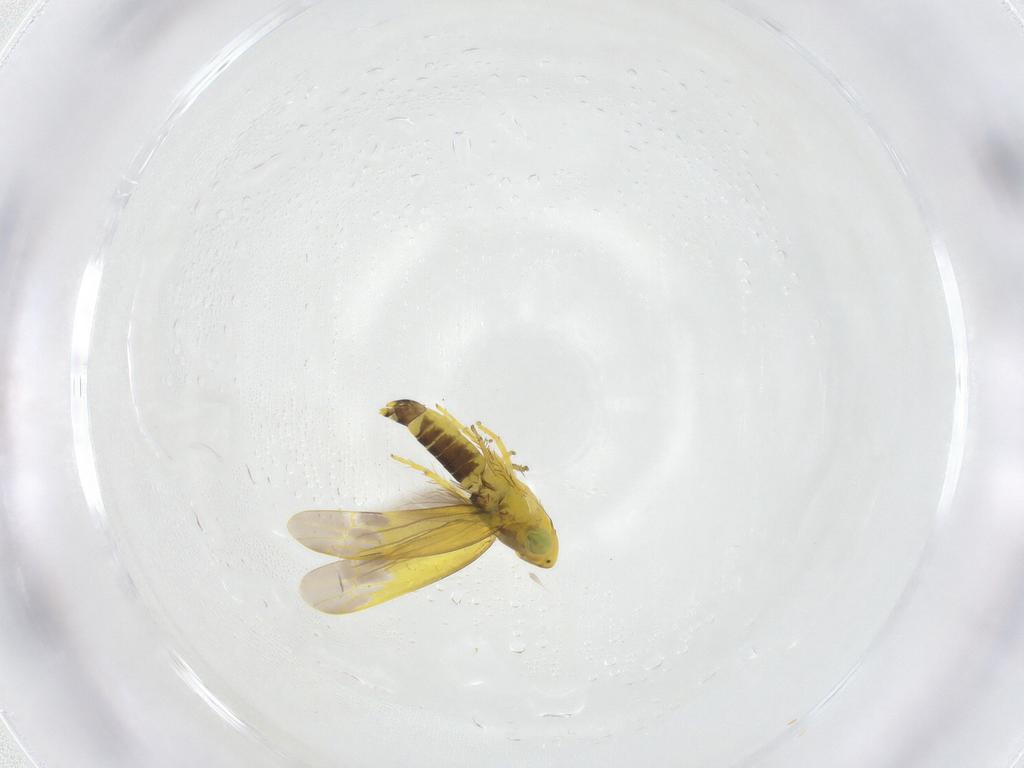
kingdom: Animalia
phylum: Arthropoda
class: Insecta
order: Hemiptera
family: Cicadellidae
